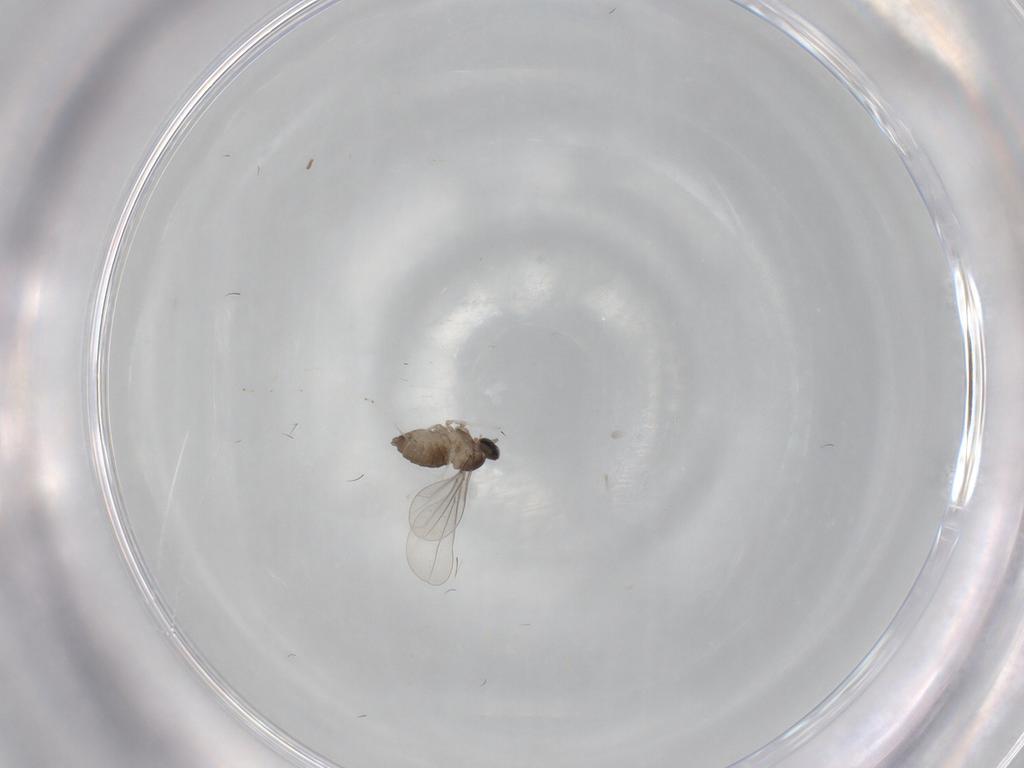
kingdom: Animalia
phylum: Arthropoda
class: Insecta
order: Diptera
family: Cecidomyiidae
